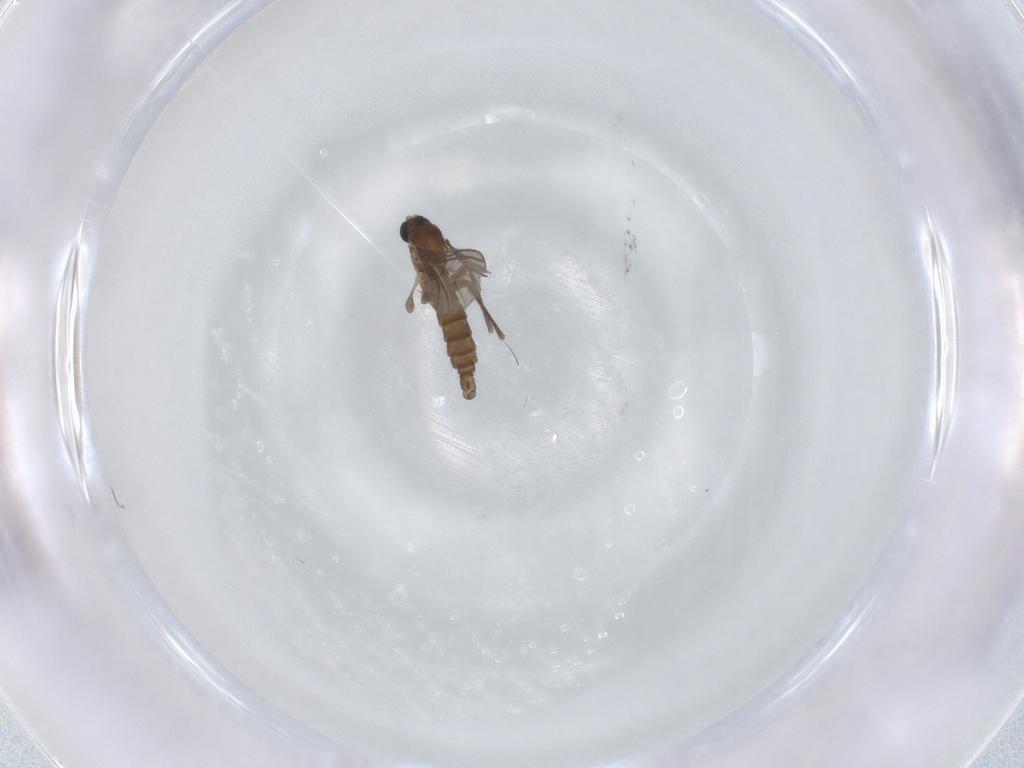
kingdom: Animalia
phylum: Arthropoda
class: Insecta
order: Diptera
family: Sciaridae
